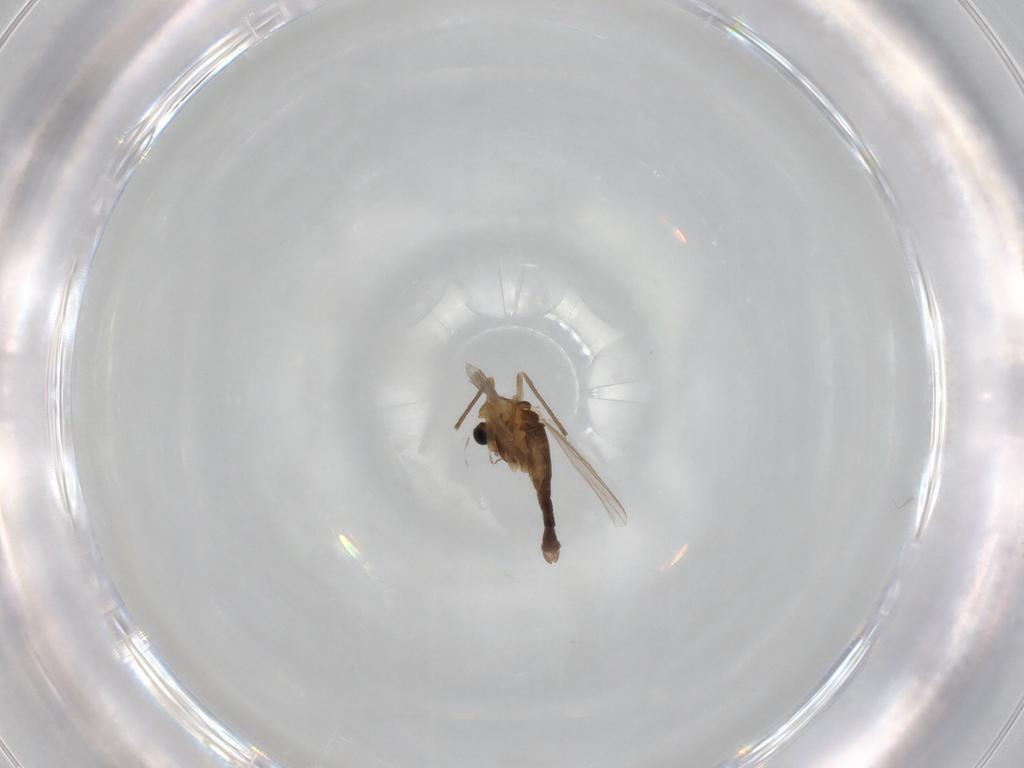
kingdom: Animalia
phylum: Arthropoda
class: Insecta
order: Diptera
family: Chironomidae
